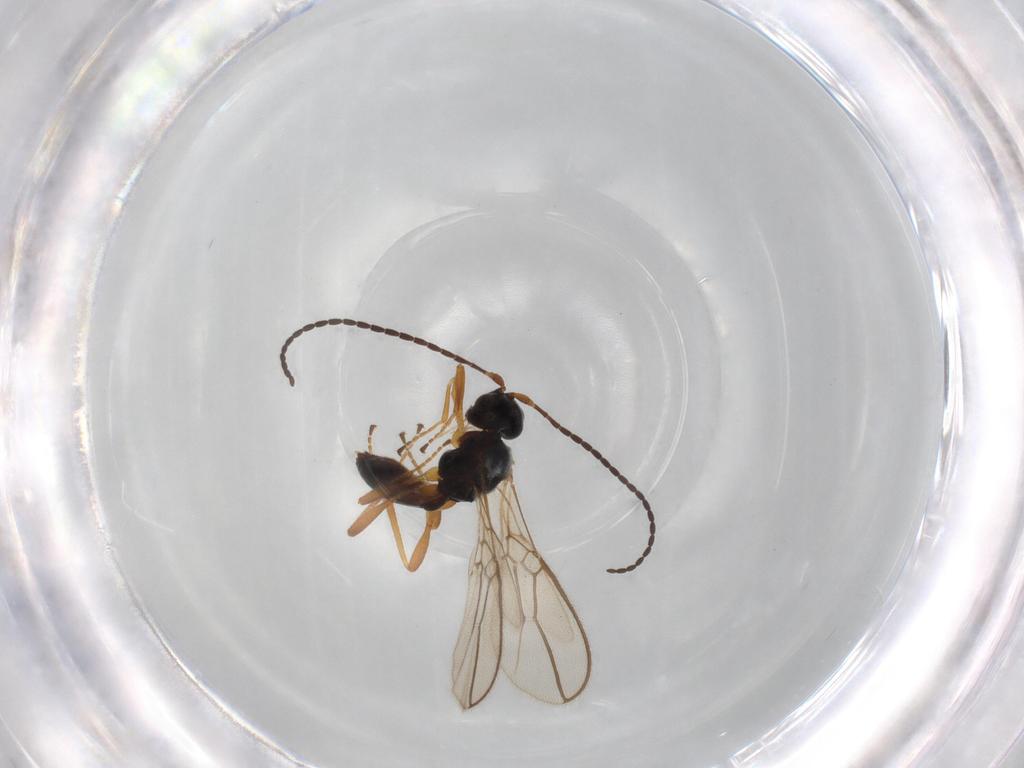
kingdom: Animalia
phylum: Arthropoda
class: Insecta
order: Hymenoptera
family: Braconidae
